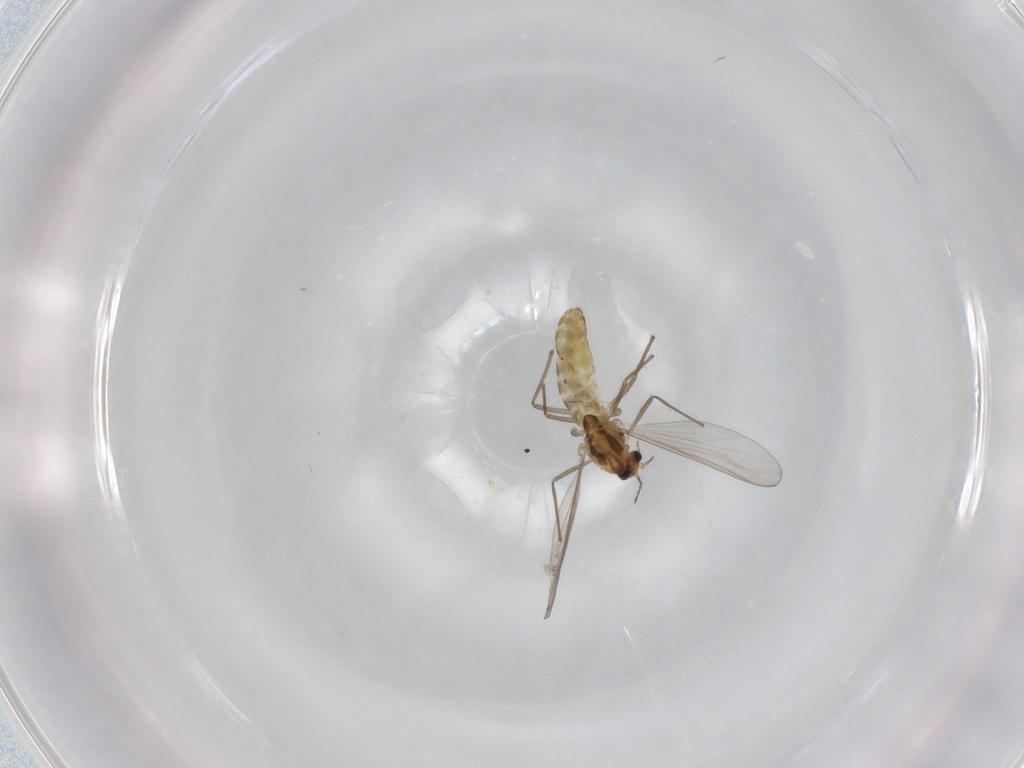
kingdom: Animalia
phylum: Arthropoda
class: Insecta
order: Diptera
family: Chironomidae
